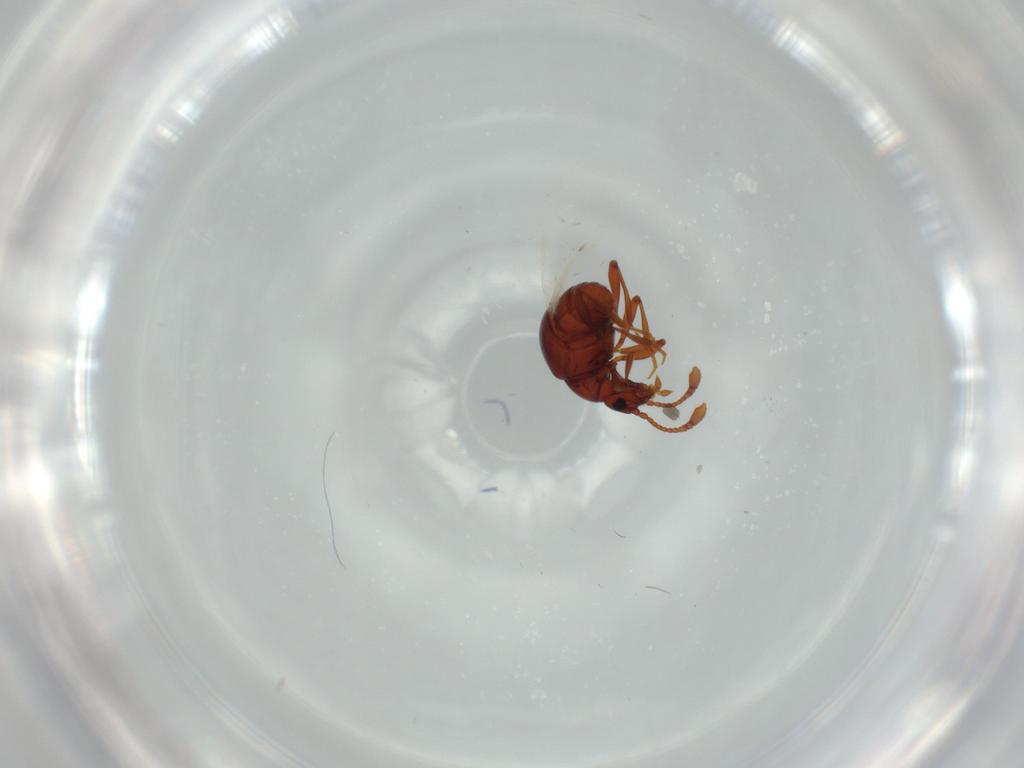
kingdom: Animalia
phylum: Arthropoda
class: Insecta
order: Coleoptera
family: Staphylinidae
